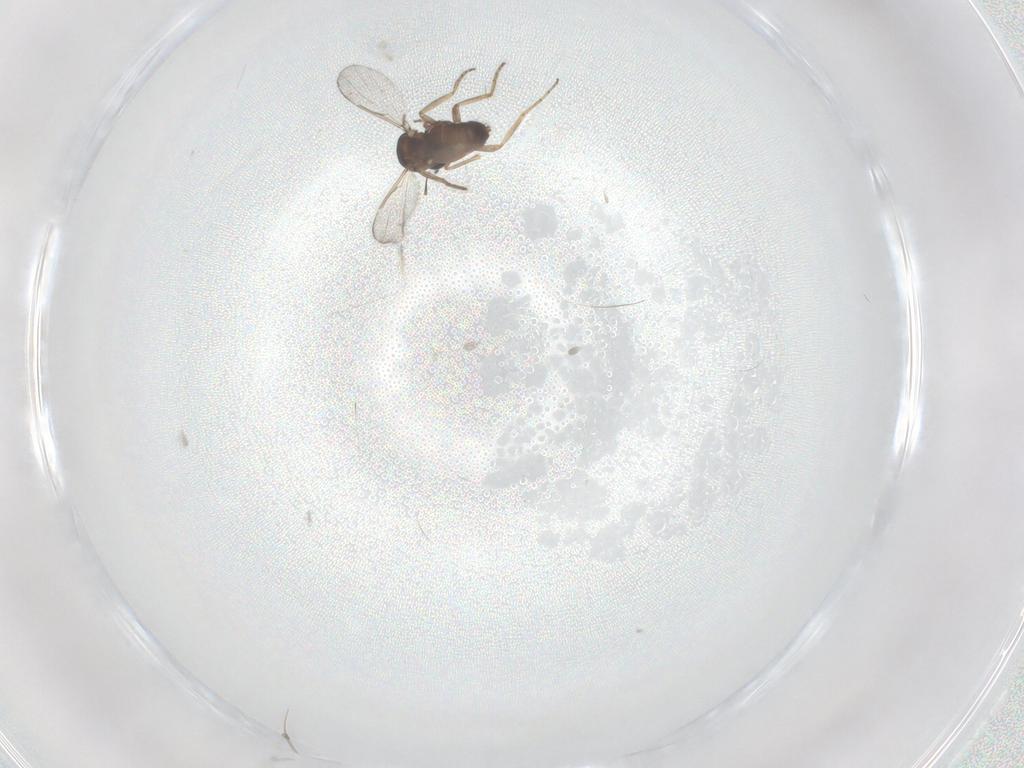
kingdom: Animalia
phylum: Arthropoda
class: Insecta
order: Diptera
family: Ceratopogonidae
